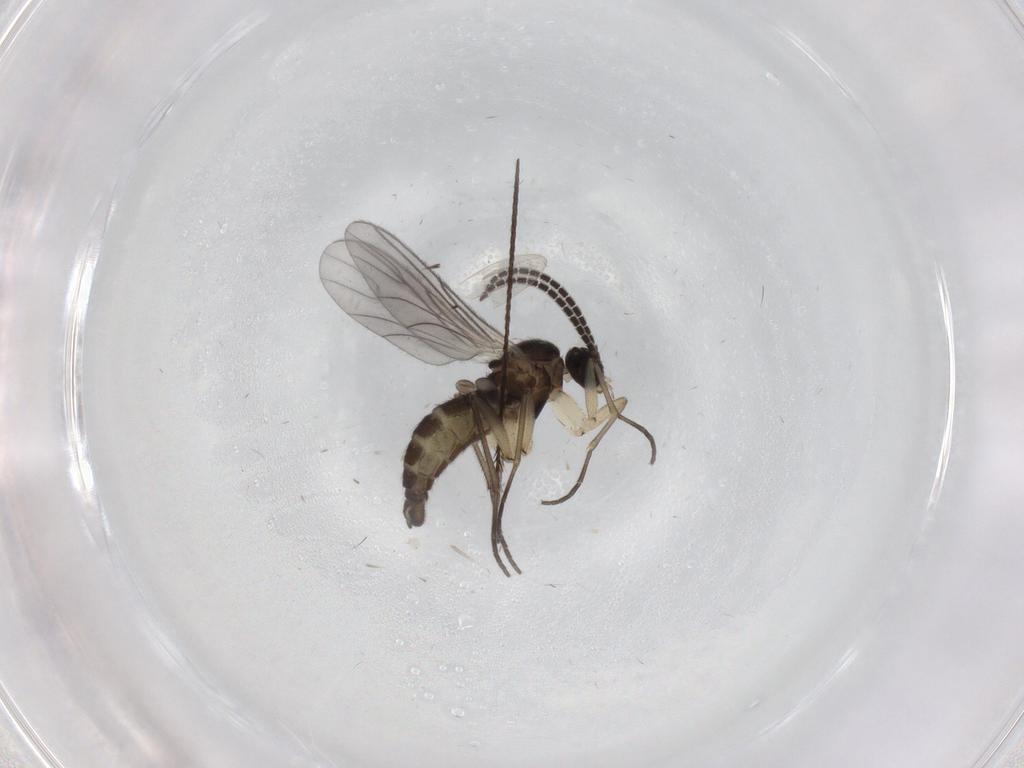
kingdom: Animalia
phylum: Arthropoda
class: Insecta
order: Diptera
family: Sciaridae
